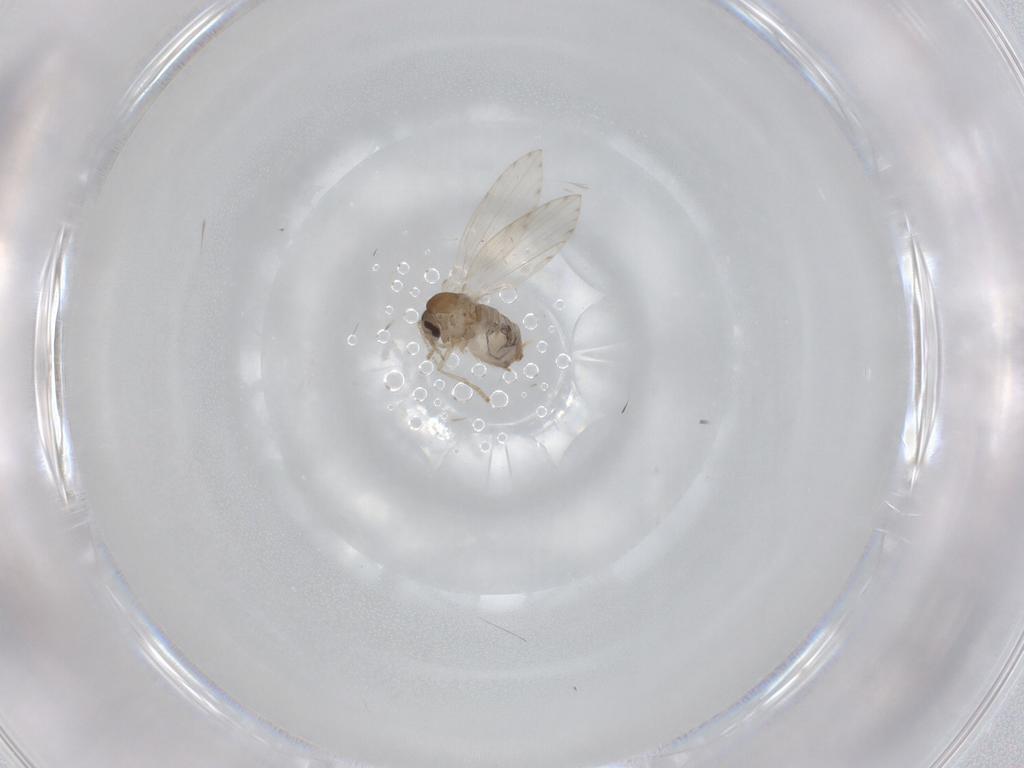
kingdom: Animalia
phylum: Arthropoda
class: Insecta
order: Diptera
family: Psychodidae
